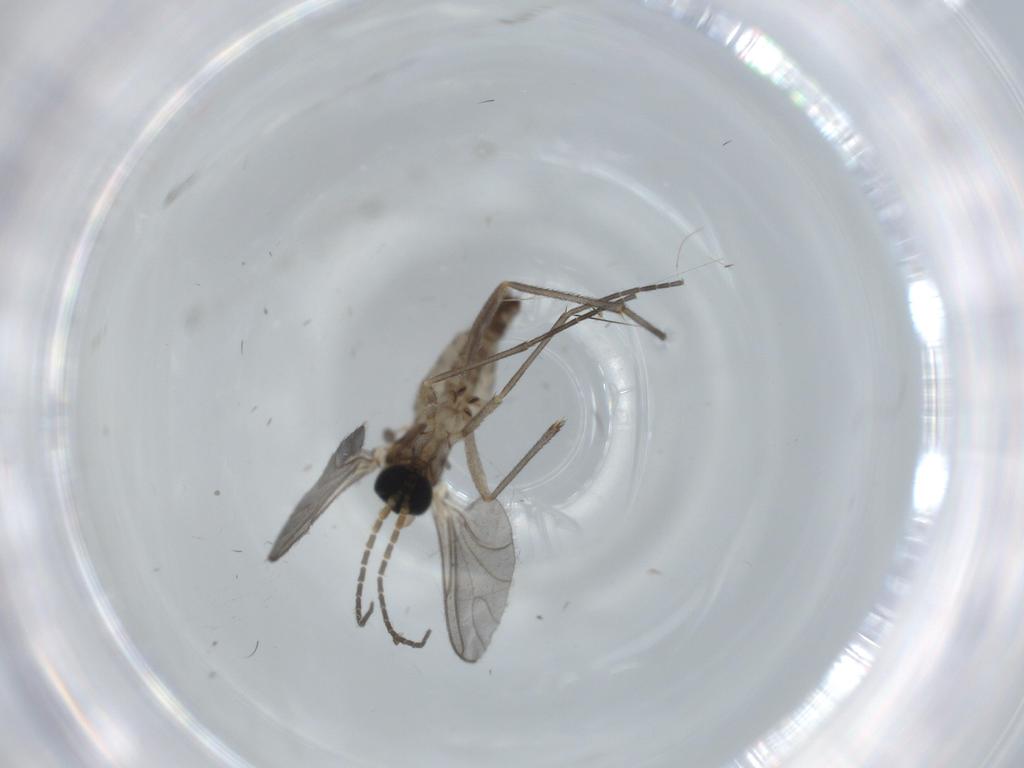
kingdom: Animalia
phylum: Arthropoda
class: Insecta
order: Diptera
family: Sciaridae
